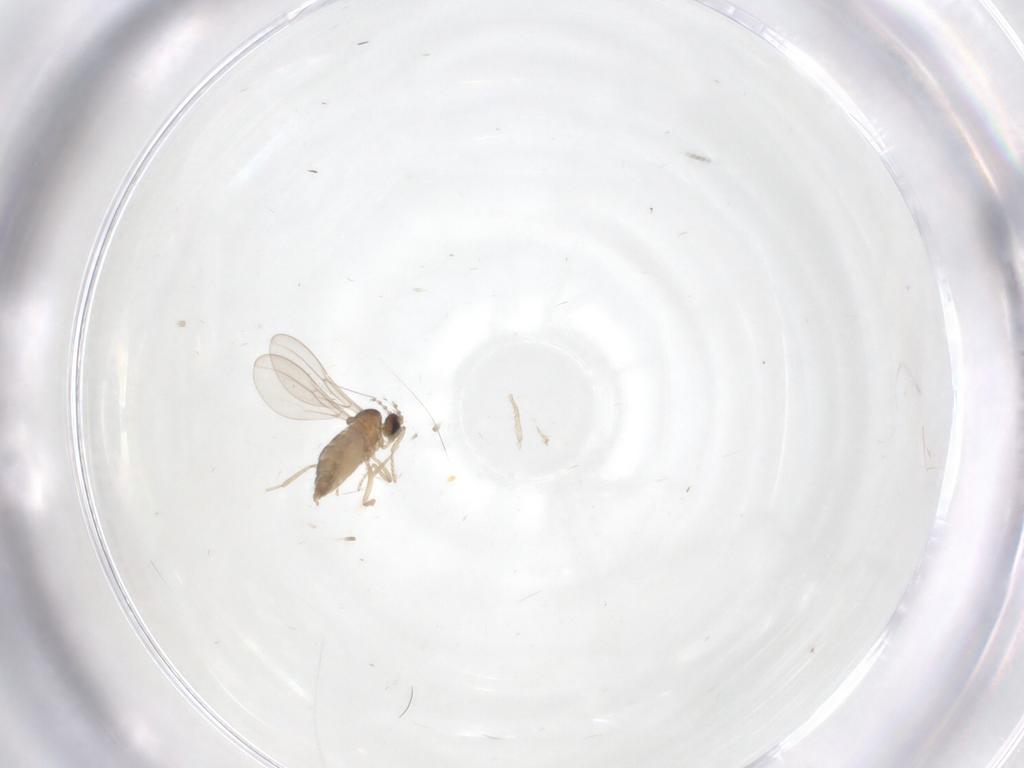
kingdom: Animalia
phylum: Arthropoda
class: Insecta
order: Diptera
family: Cecidomyiidae
